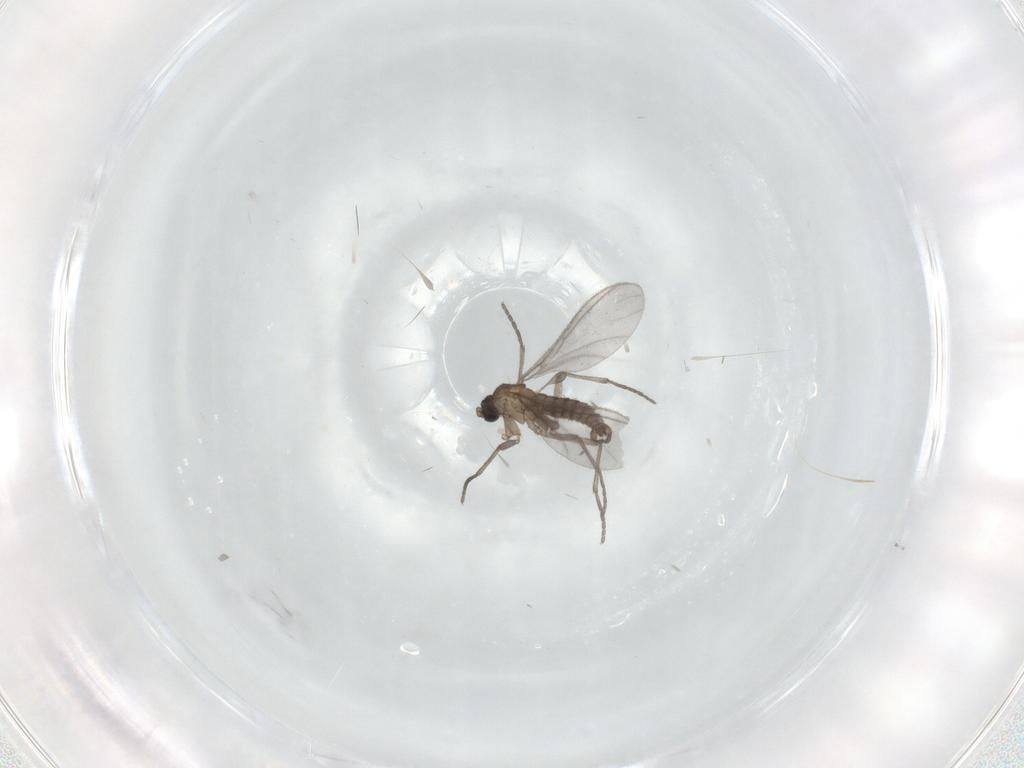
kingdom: Animalia
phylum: Arthropoda
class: Insecta
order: Diptera
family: Sciaridae
